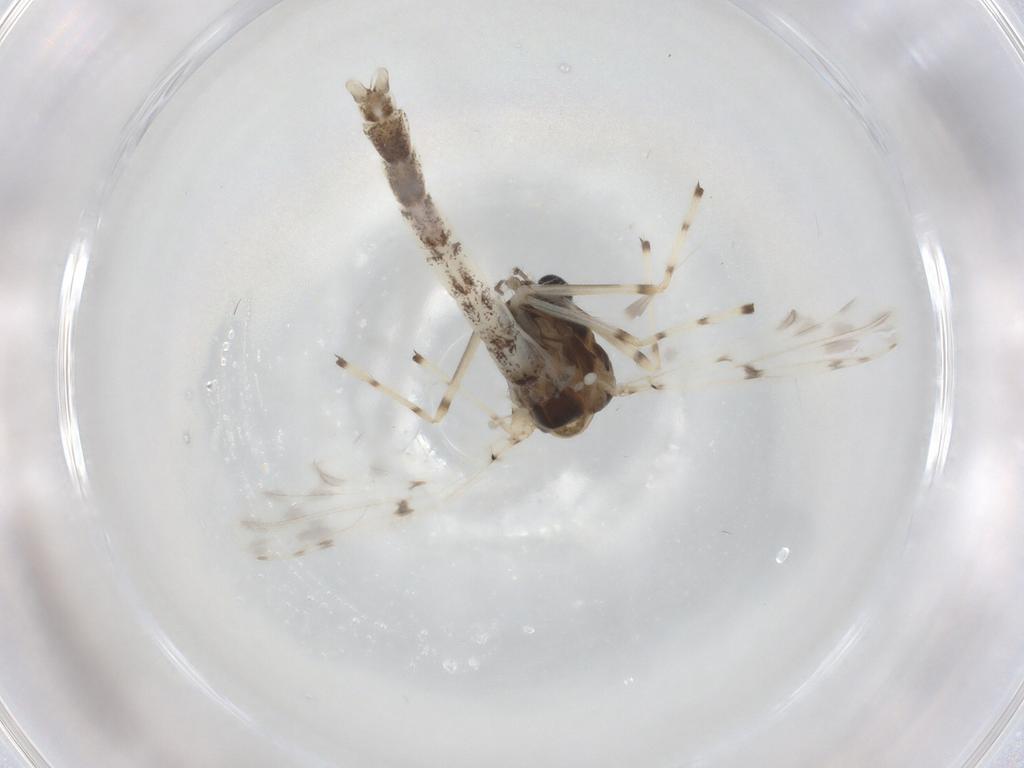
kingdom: Animalia
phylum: Arthropoda
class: Insecta
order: Diptera
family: Chironomidae
